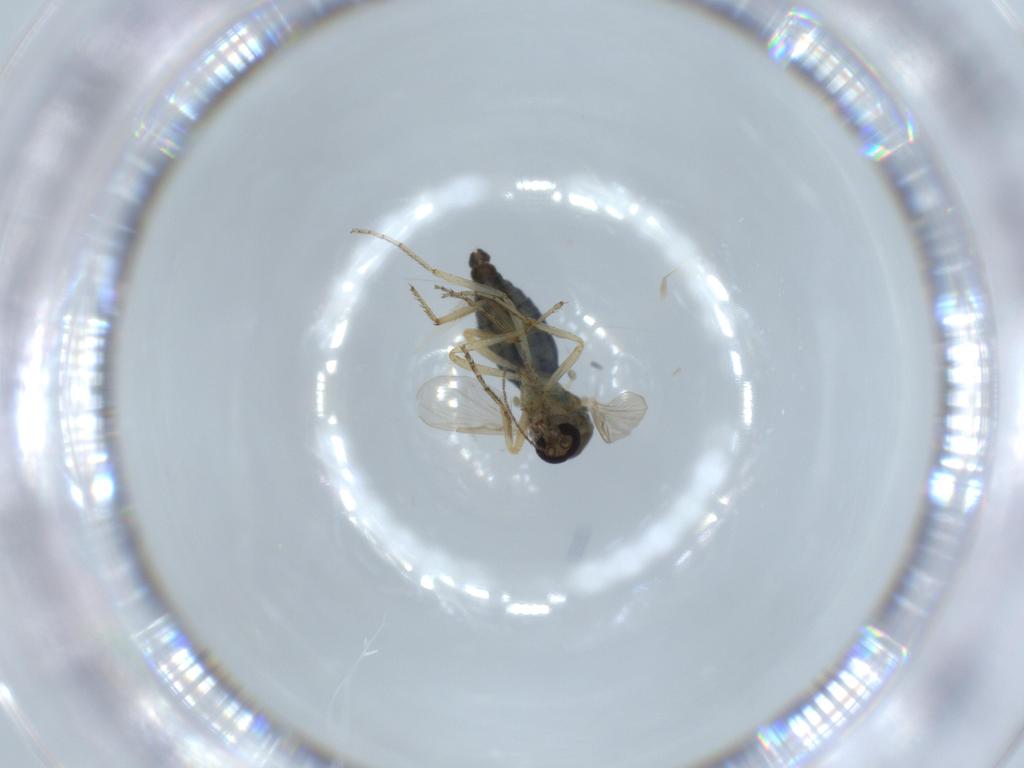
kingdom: Animalia
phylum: Arthropoda
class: Insecta
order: Diptera
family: Ceratopogonidae
